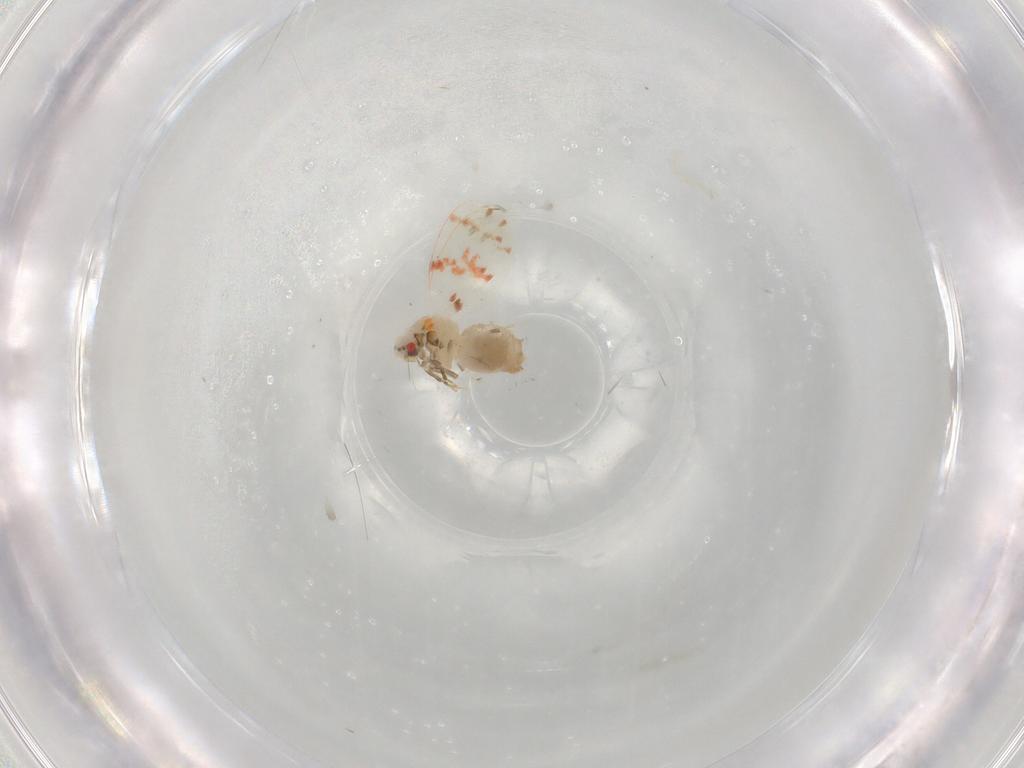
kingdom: Animalia
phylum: Arthropoda
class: Insecta
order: Hemiptera
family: Aleyrodidae
